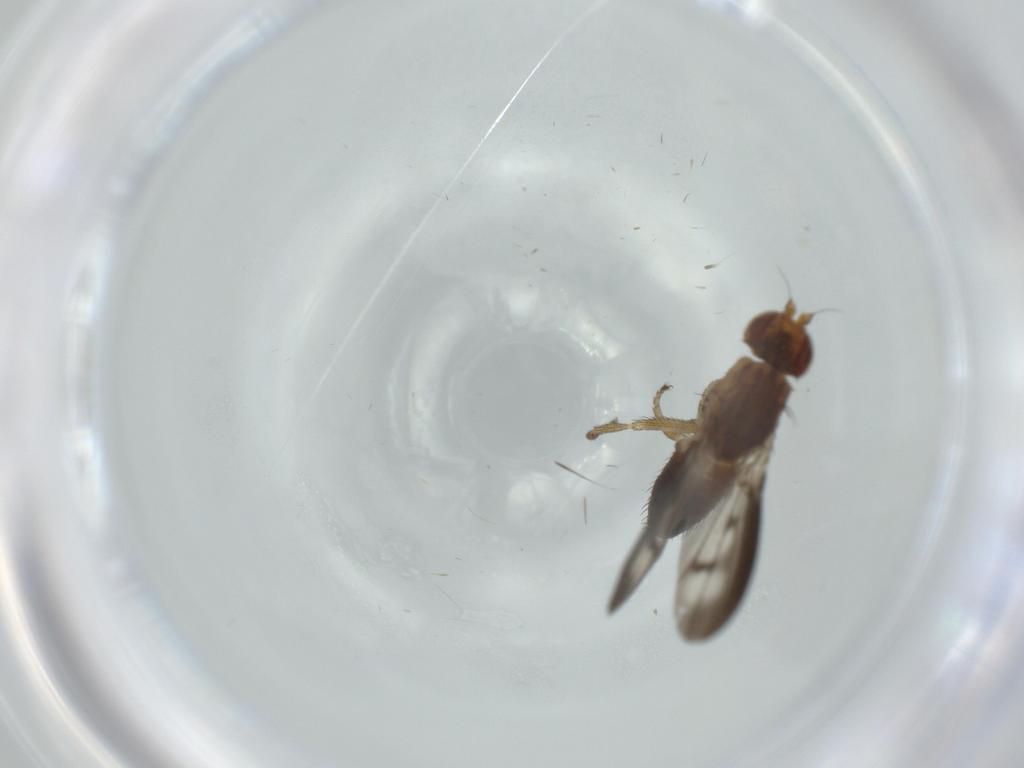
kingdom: Animalia
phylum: Arthropoda
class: Insecta
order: Diptera
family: Heleomyzidae
